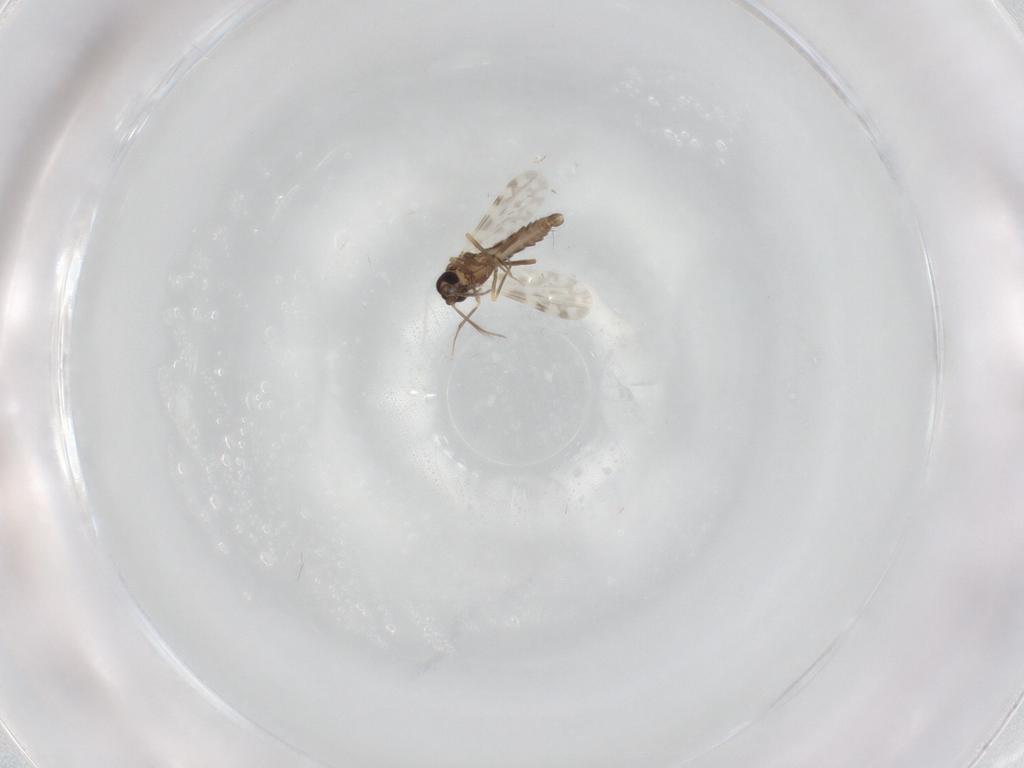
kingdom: Animalia
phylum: Arthropoda
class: Insecta
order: Diptera
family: Ceratopogonidae
